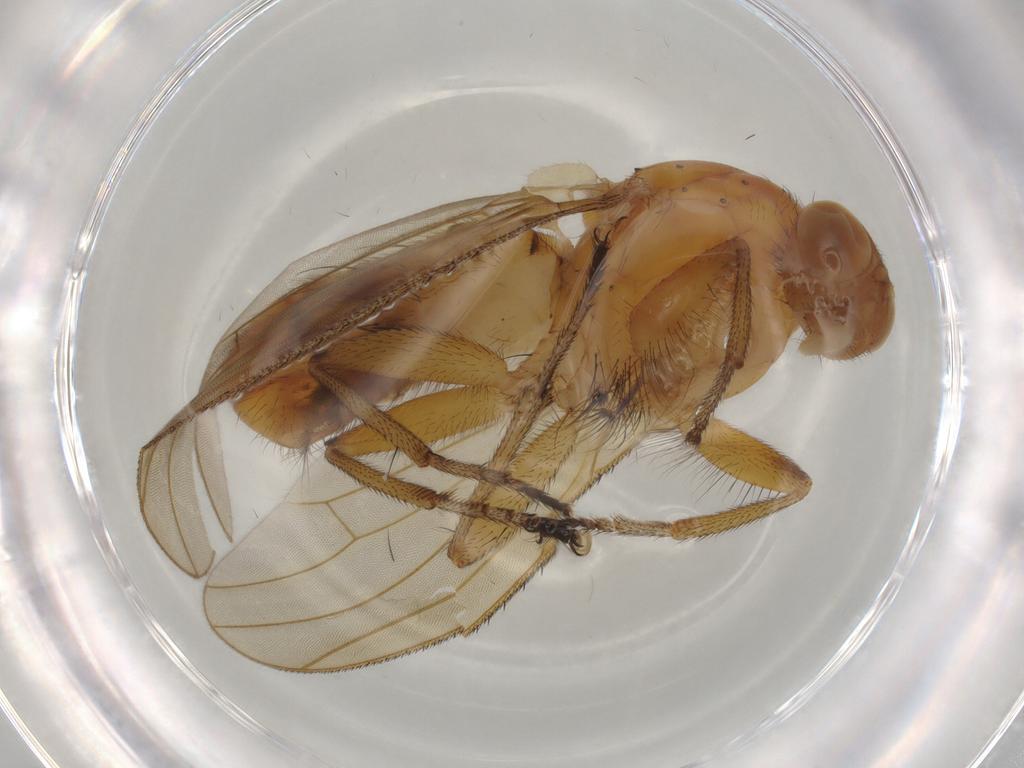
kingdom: Animalia
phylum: Arthropoda
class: Insecta
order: Diptera
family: Heleomyzidae
